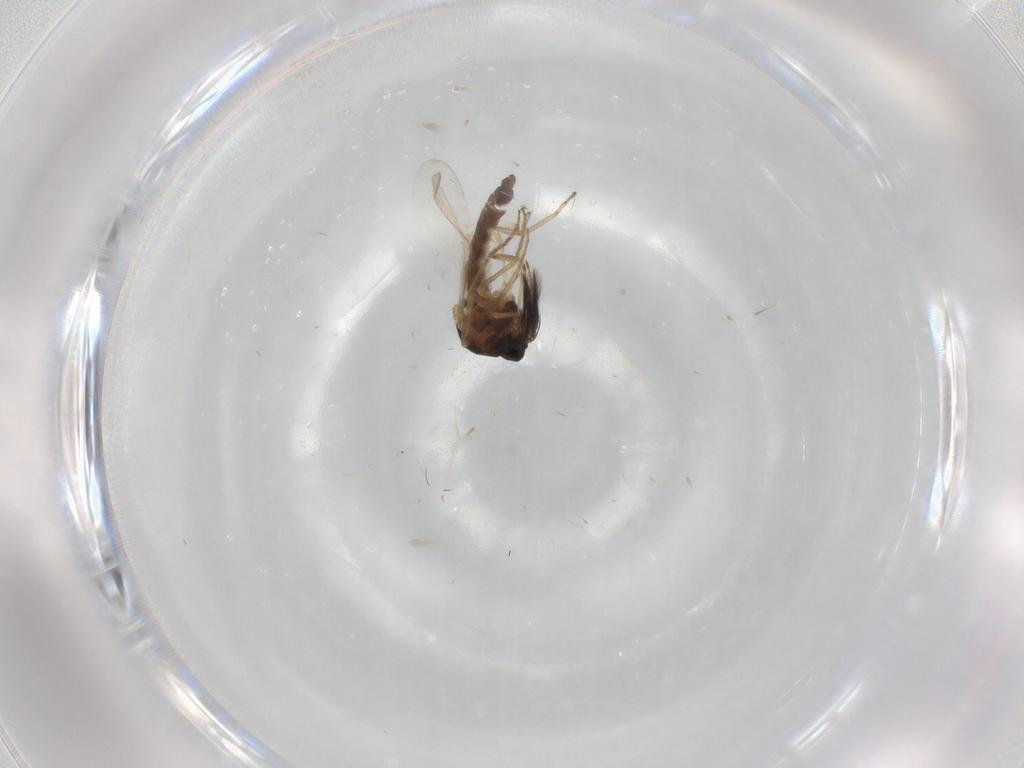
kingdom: Animalia
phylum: Arthropoda
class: Insecta
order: Diptera
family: Ceratopogonidae
